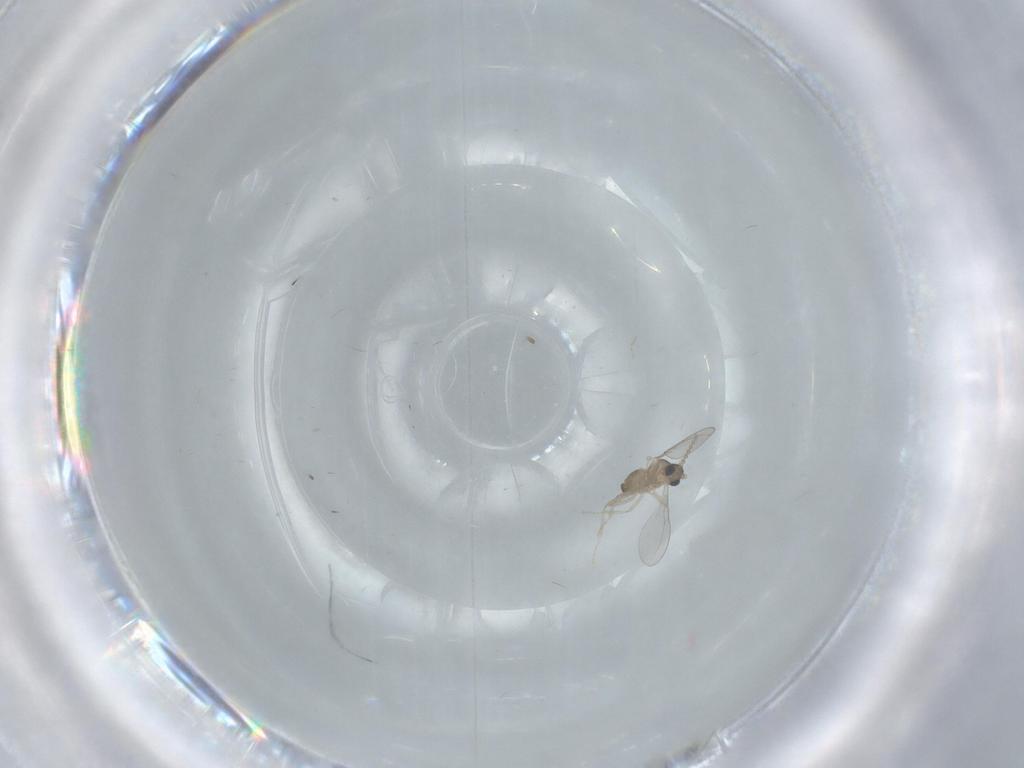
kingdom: Animalia
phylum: Arthropoda
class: Insecta
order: Diptera
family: Cecidomyiidae
